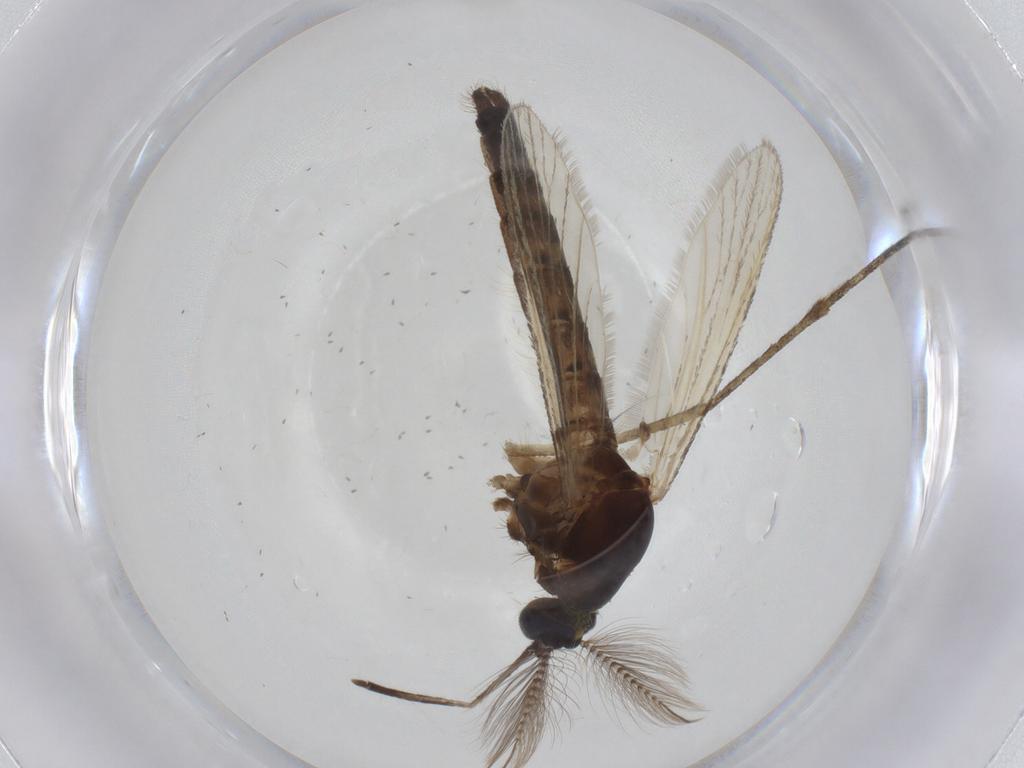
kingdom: Animalia
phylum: Arthropoda
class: Insecta
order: Diptera
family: Culicidae
